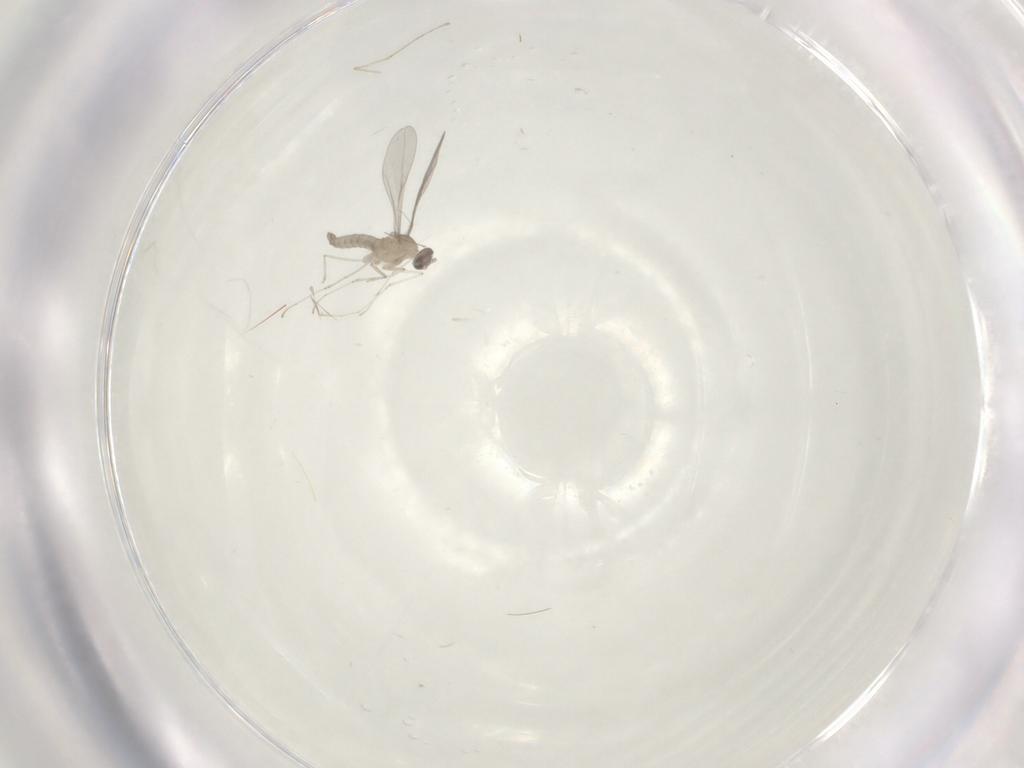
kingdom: Animalia
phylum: Arthropoda
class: Insecta
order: Diptera
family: Cecidomyiidae
